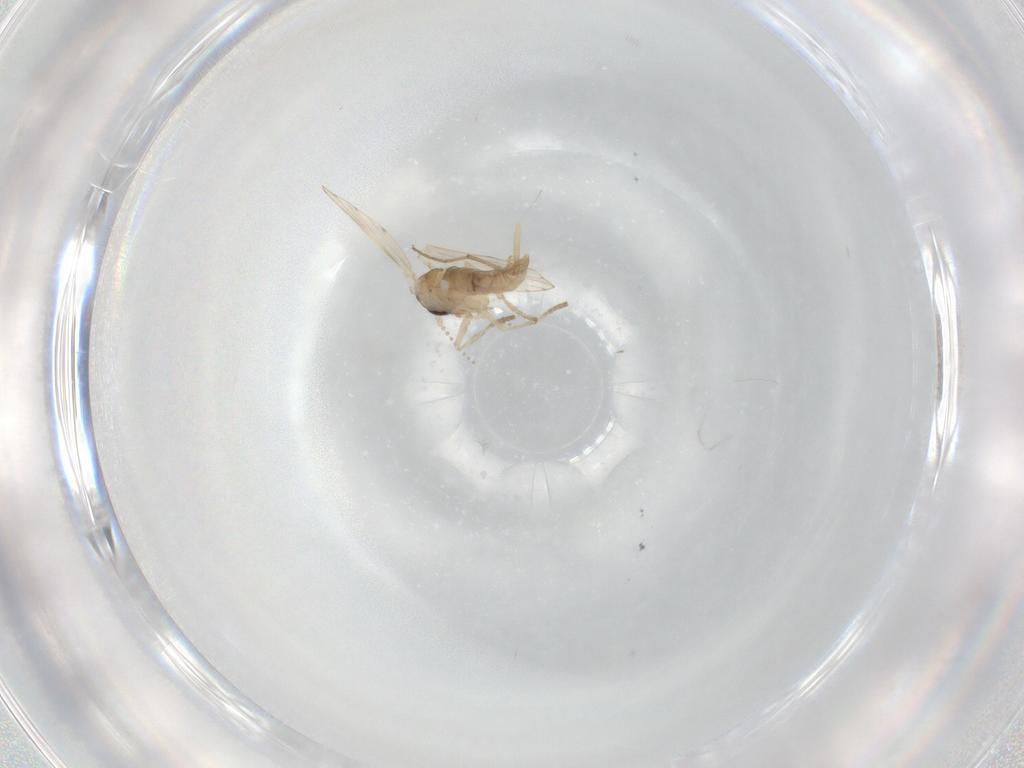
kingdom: Animalia
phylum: Arthropoda
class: Insecta
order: Diptera
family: Psychodidae
